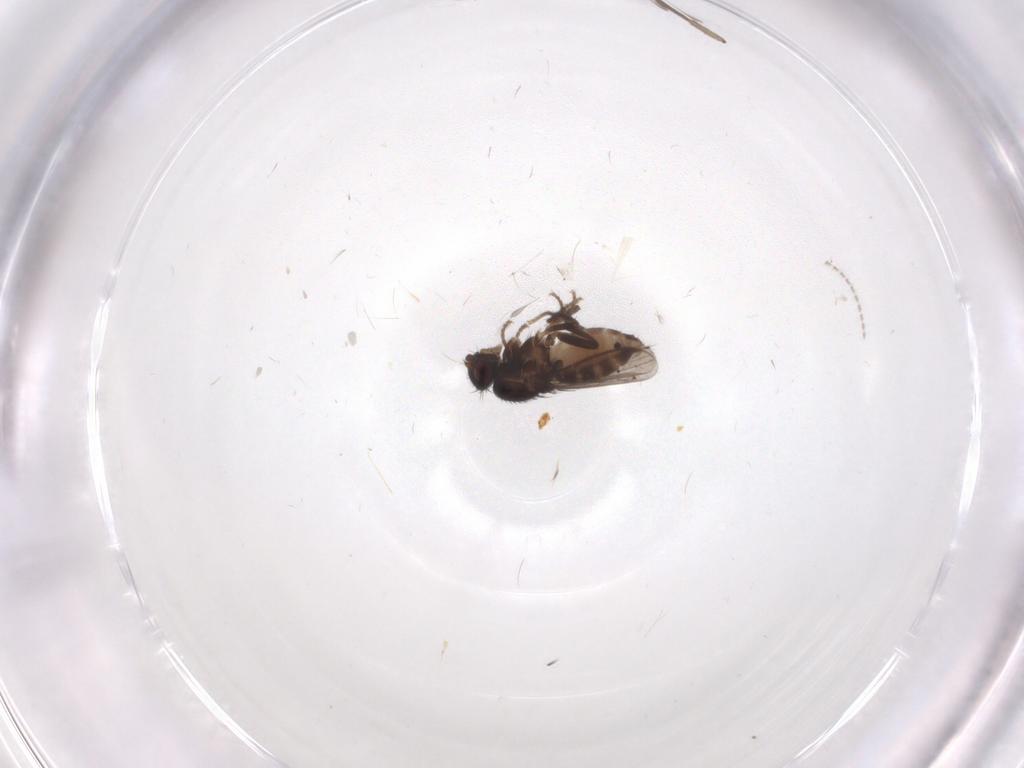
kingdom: Animalia
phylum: Arthropoda
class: Insecta
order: Diptera
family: Sphaeroceridae
